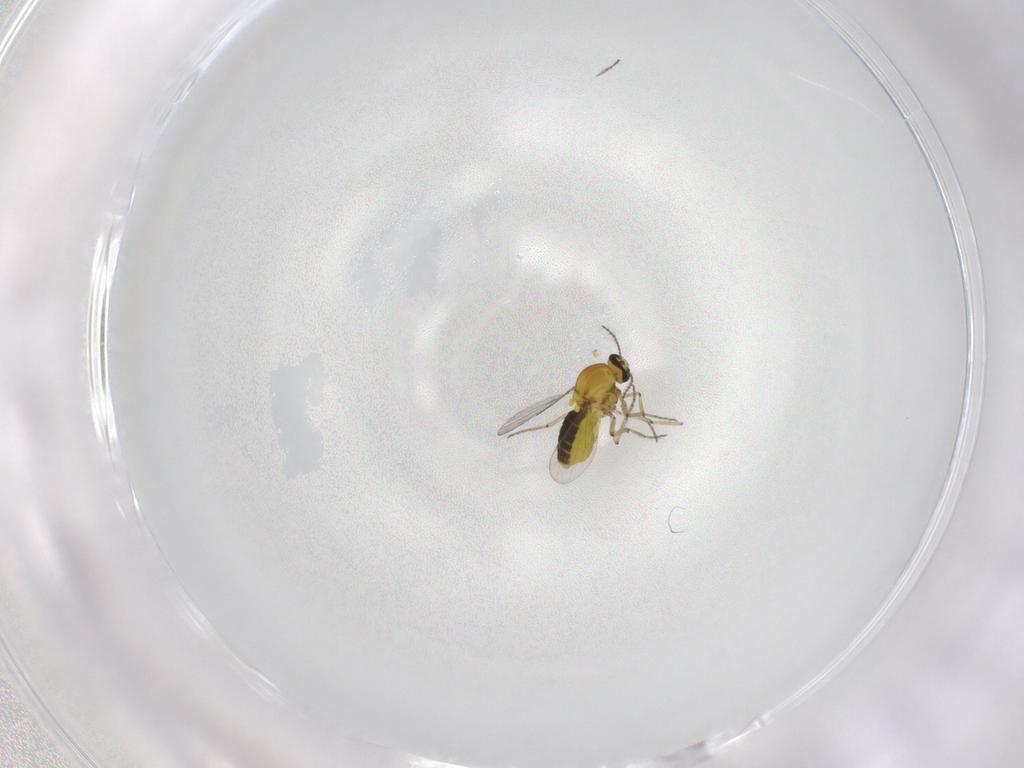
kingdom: Animalia
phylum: Arthropoda
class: Insecta
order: Diptera
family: Ceratopogonidae
